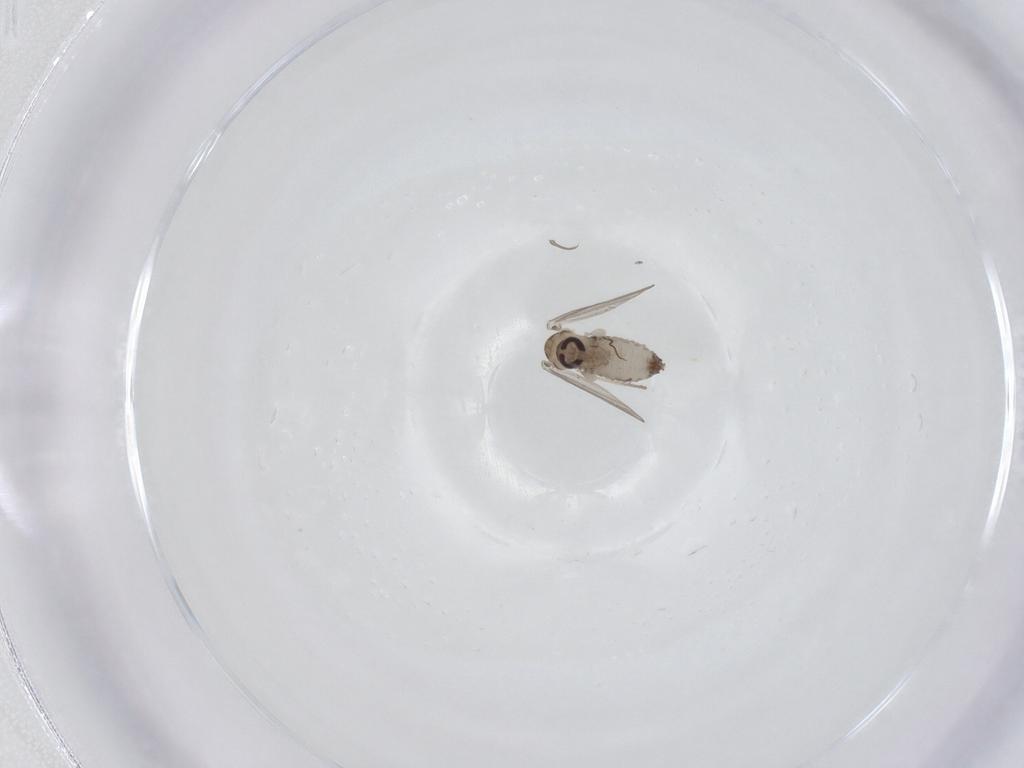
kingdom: Animalia
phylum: Arthropoda
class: Insecta
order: Diptera
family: Psychodidae
